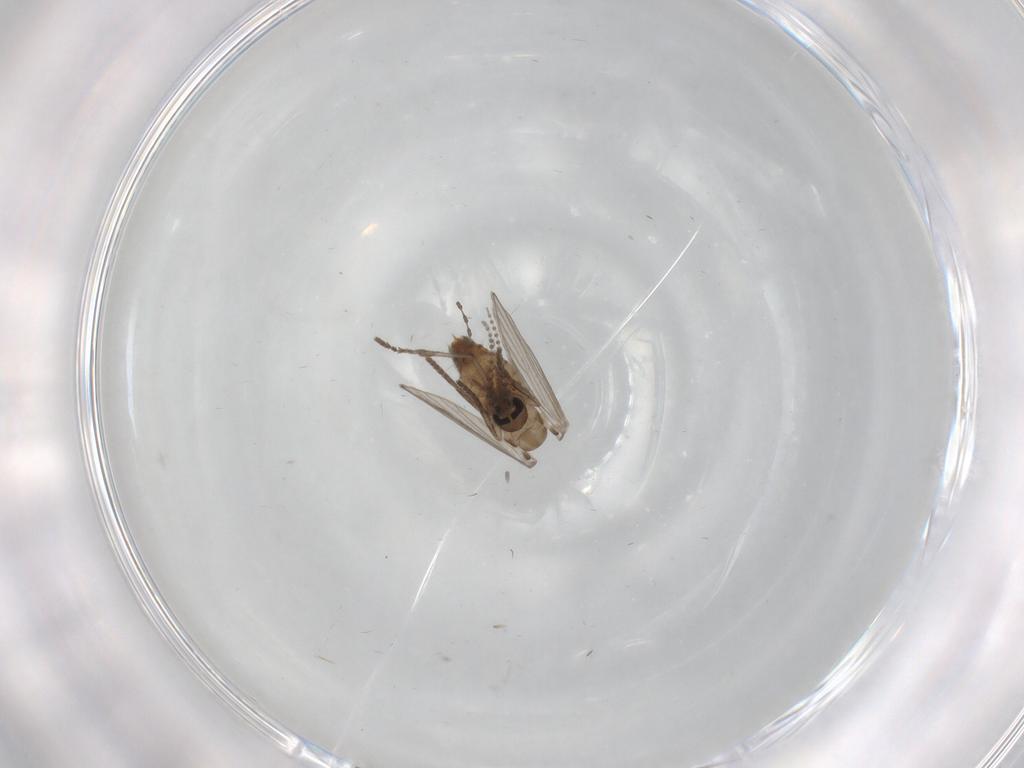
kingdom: Animalia
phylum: Arthropoda
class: Insecta
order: Diptera
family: Psychodidae
